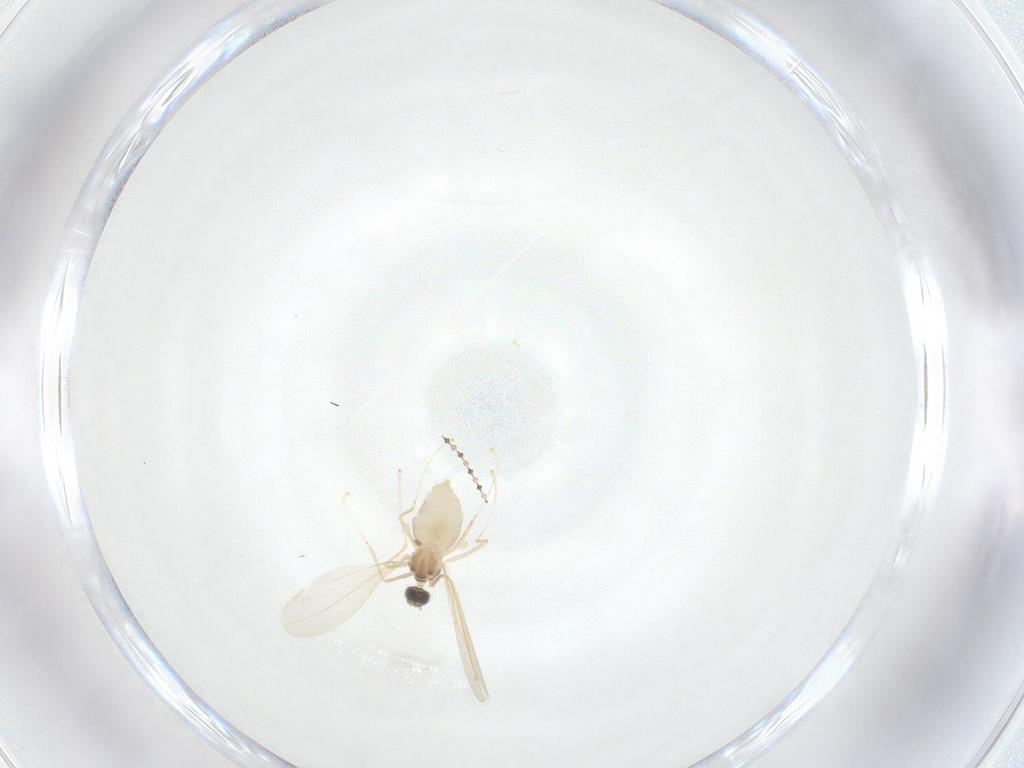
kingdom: Animalia
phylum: Arthropoda
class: Insecta
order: Diptera
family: Cecidomyiidae
